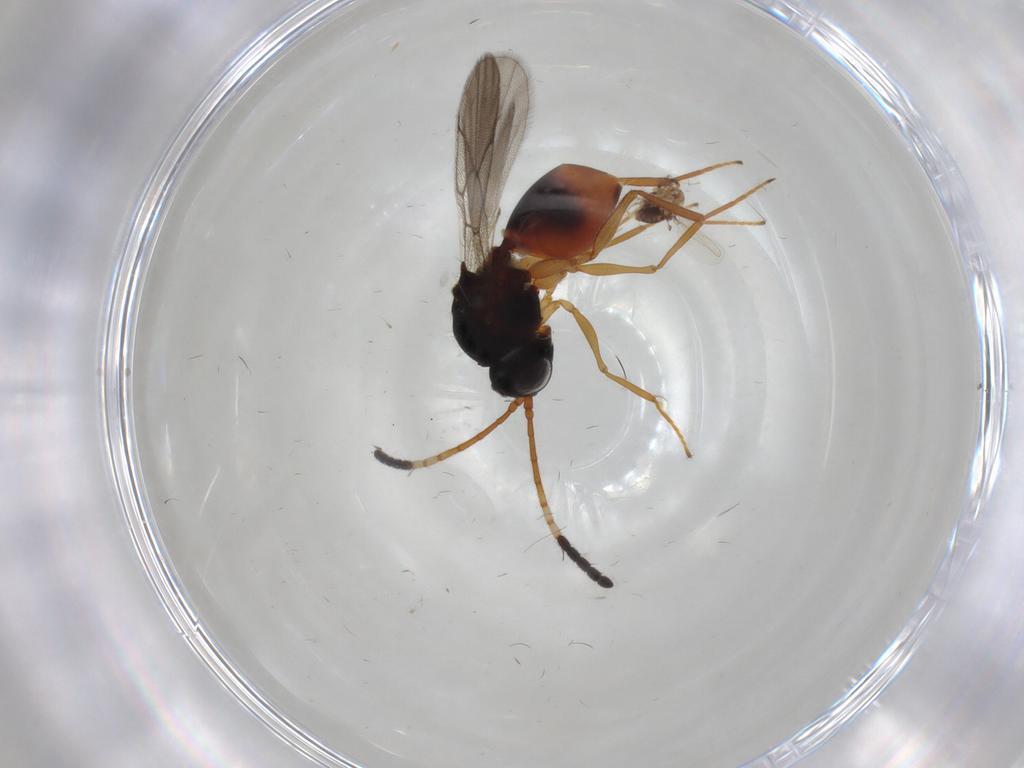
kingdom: Animalia
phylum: Arthropoda
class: Insecta
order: Hymenoptera
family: Figitidae
